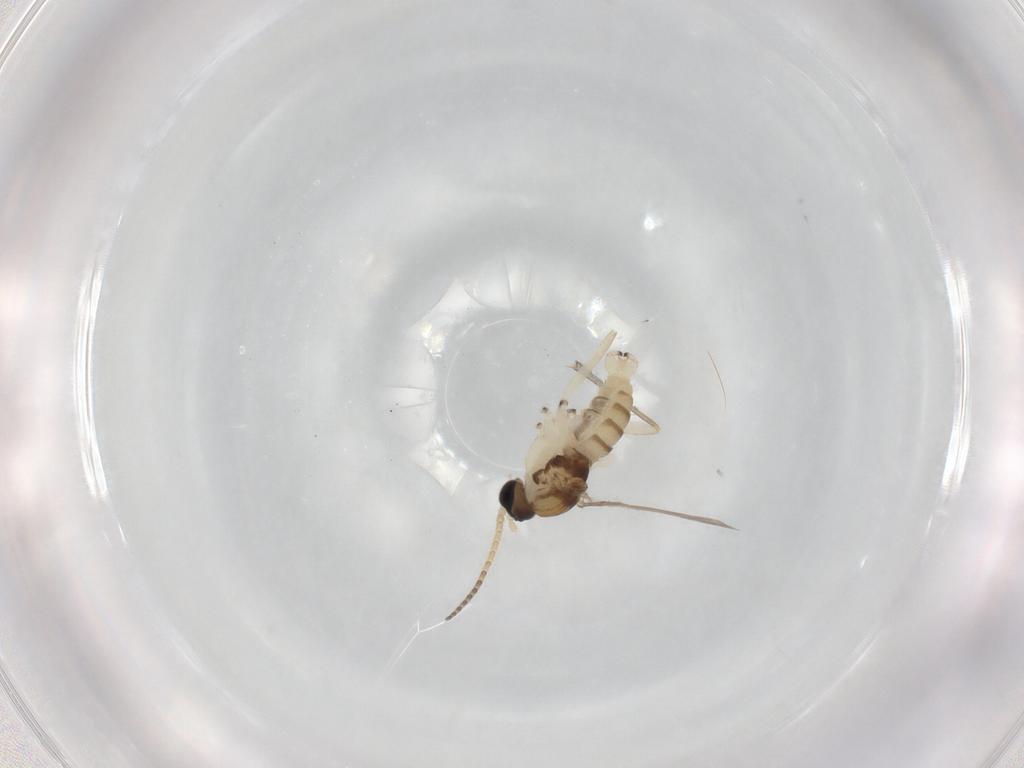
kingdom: Animalia
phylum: Arthropoda
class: Insecta
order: Diptera
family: Sciaridae
